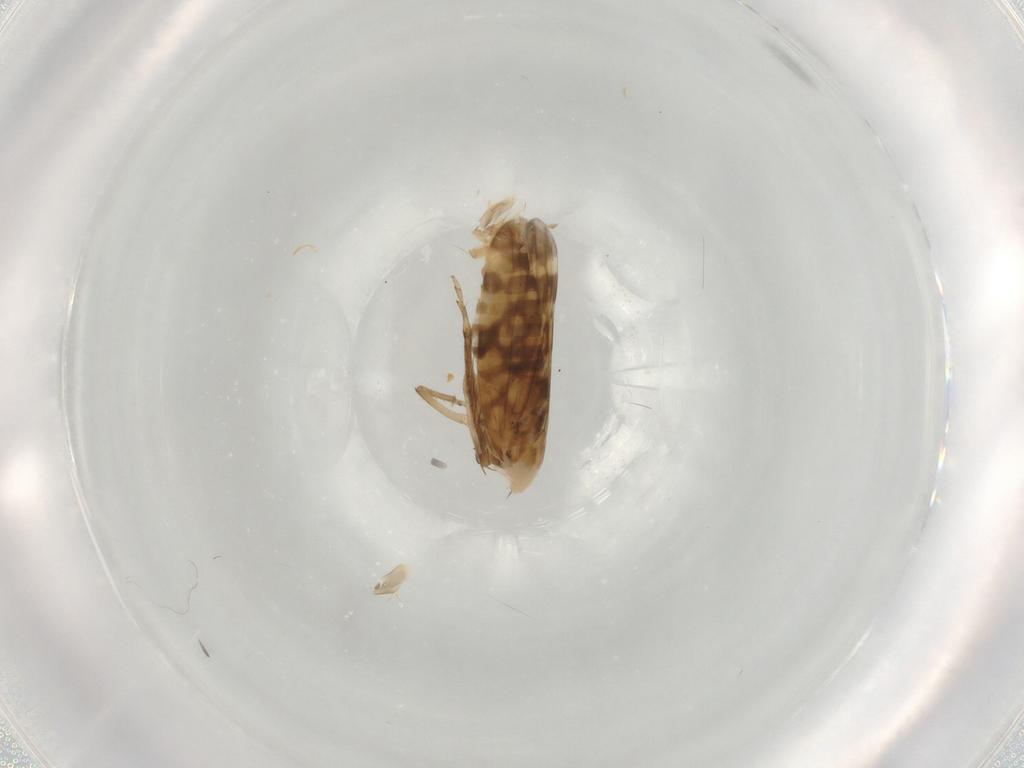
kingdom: Animalia
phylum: Arthropoda
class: Insecta
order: Hemiptera
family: Cicadellidae
